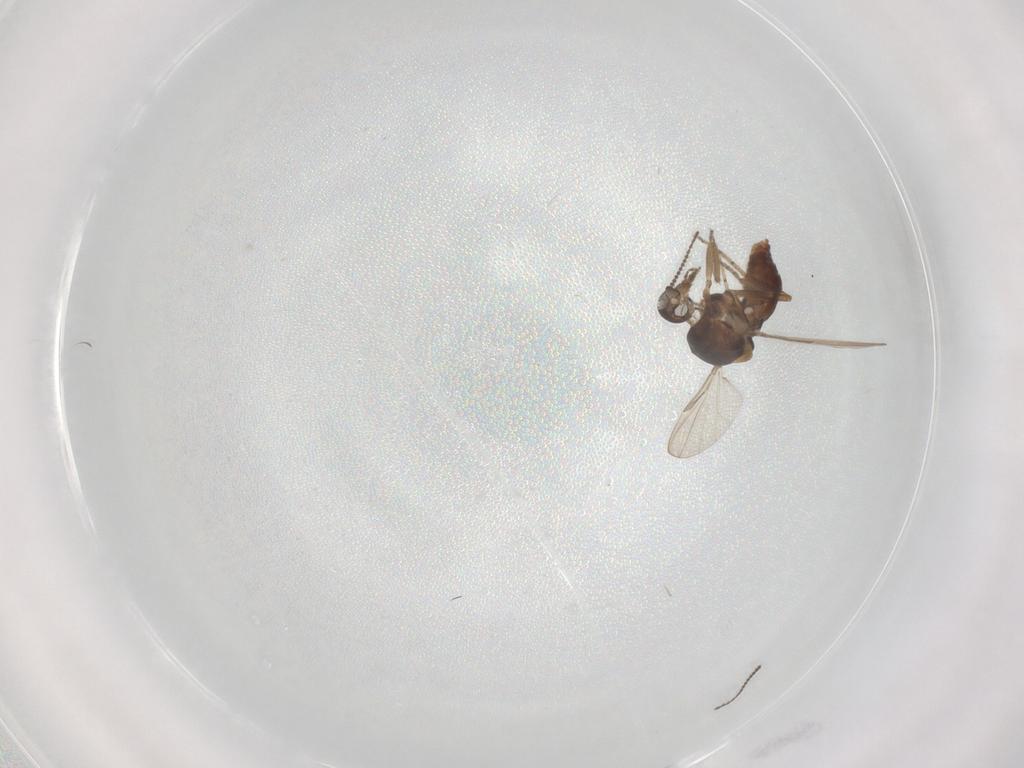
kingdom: Animalia
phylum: Arthropoda
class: Insecta
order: Diptera
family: Ceratopogonidae
